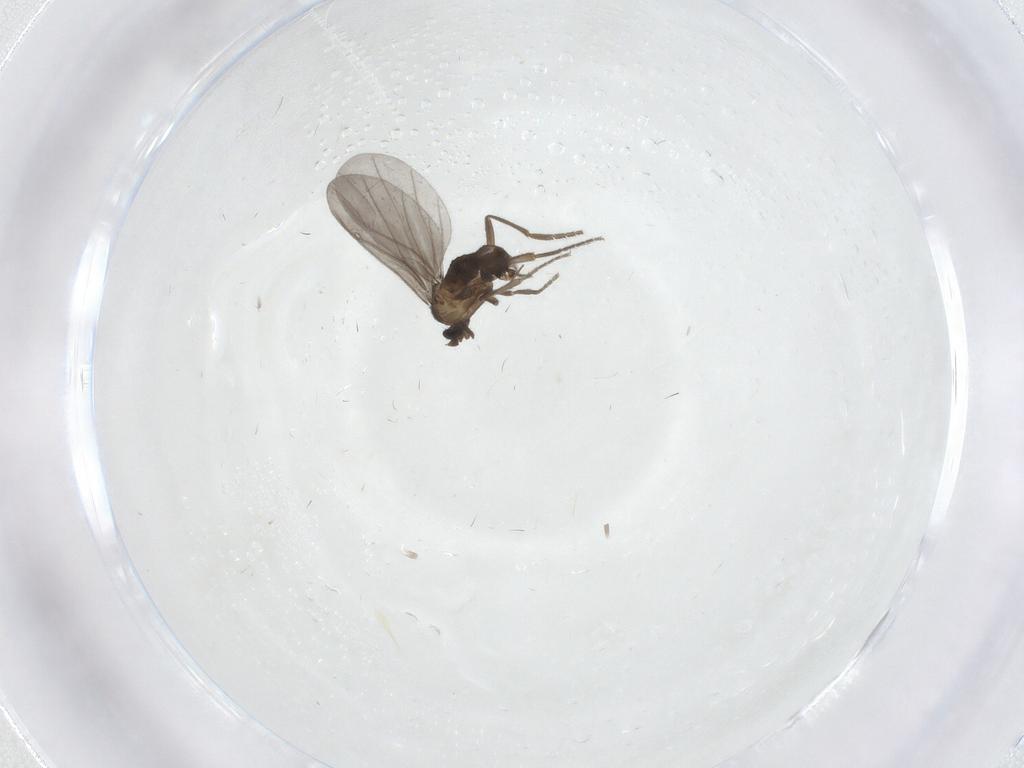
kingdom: Animalia
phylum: Arthropoda
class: Insecta
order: Diptera
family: Phoridae
